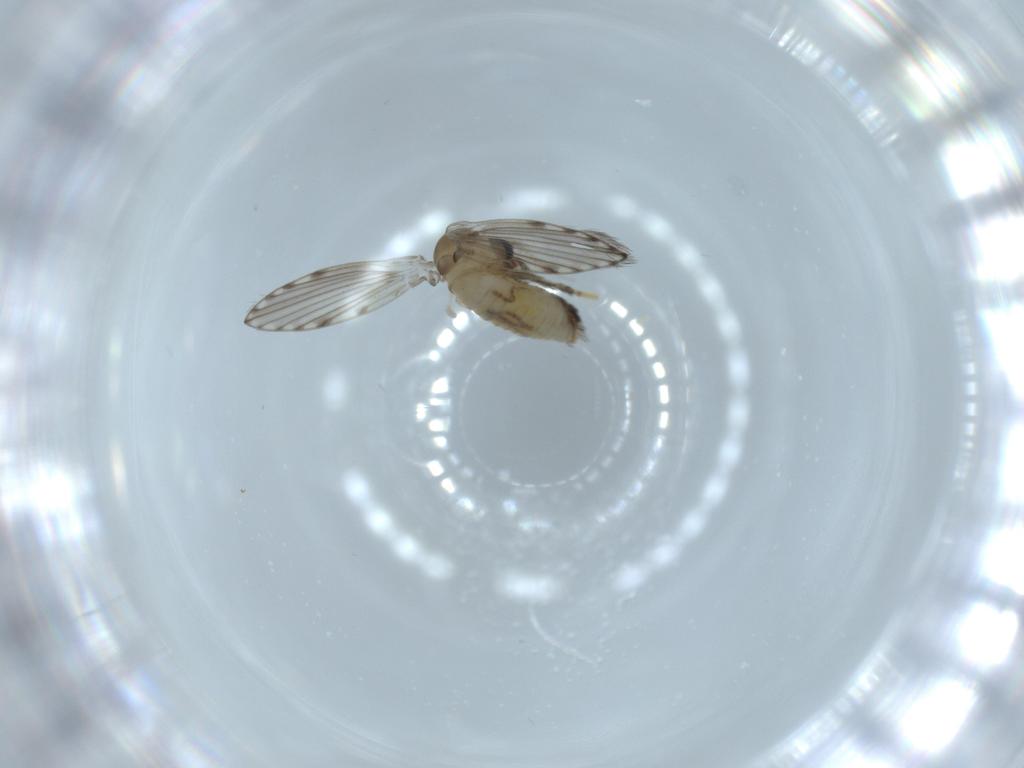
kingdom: Animalia
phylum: Arthropoda
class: Insecta
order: Diptera
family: Psychodidae
